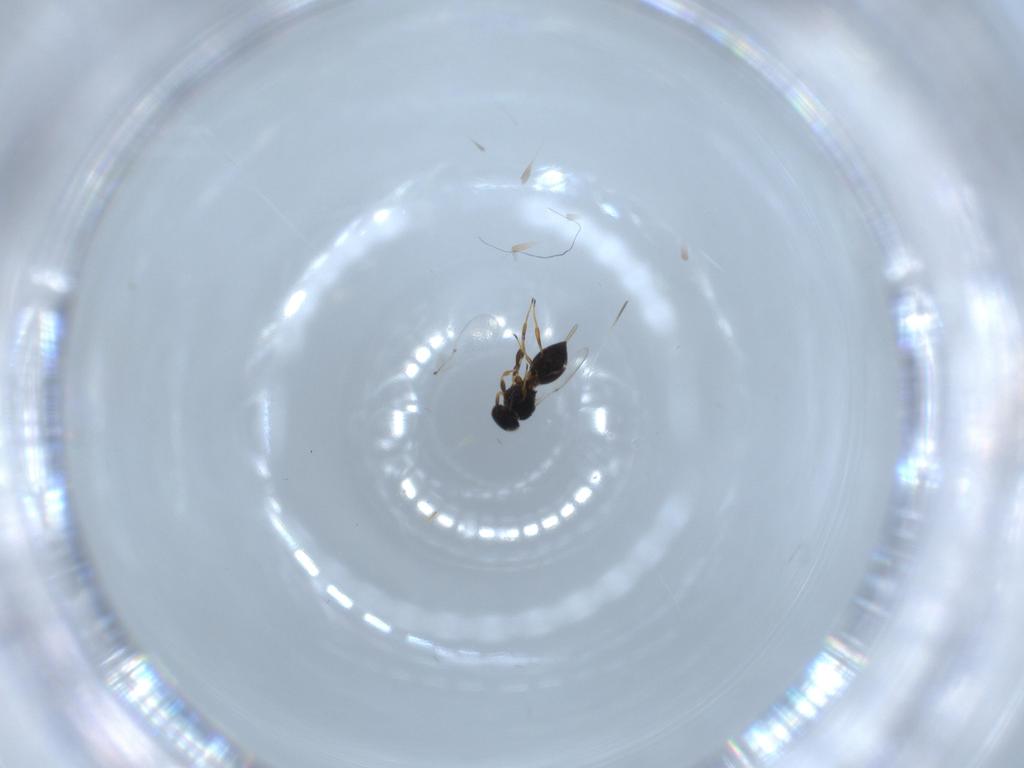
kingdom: Animalia
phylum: Arthropoda
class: Insecta
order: Hymenoptera
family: Platygastridae
